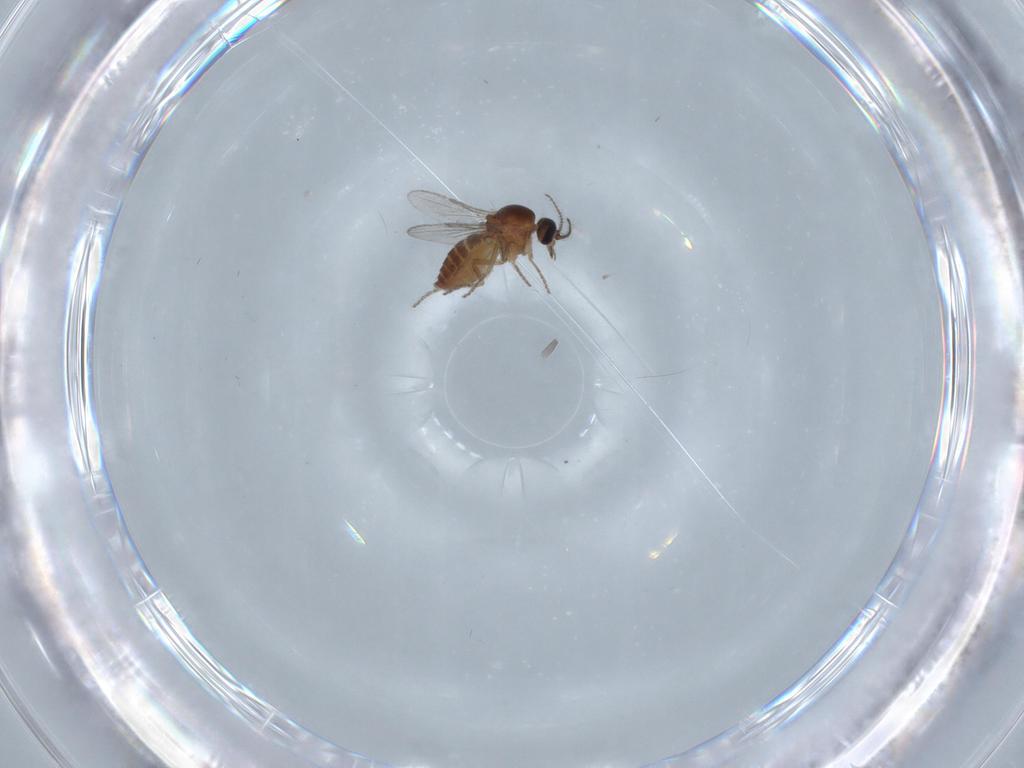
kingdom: Animalia
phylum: Arthropoda
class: Insecta
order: Diptera
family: Ceratopogonidae
